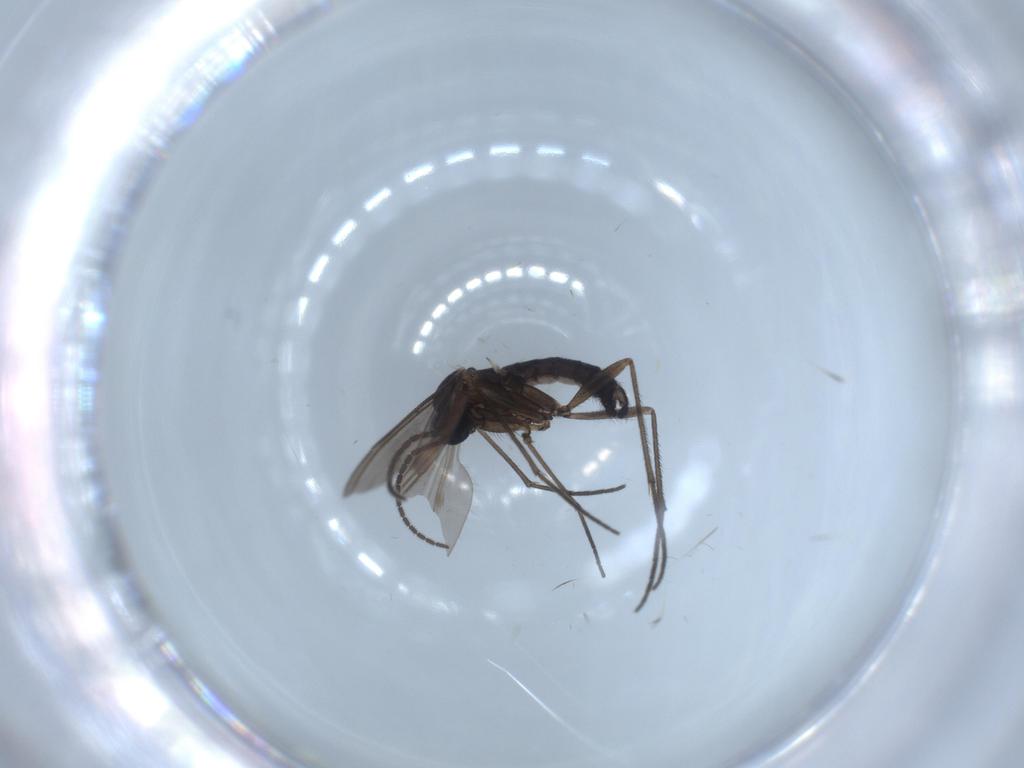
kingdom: Animalia
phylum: Arthropoda
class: Insecta
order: Diptera
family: Sciaridae
